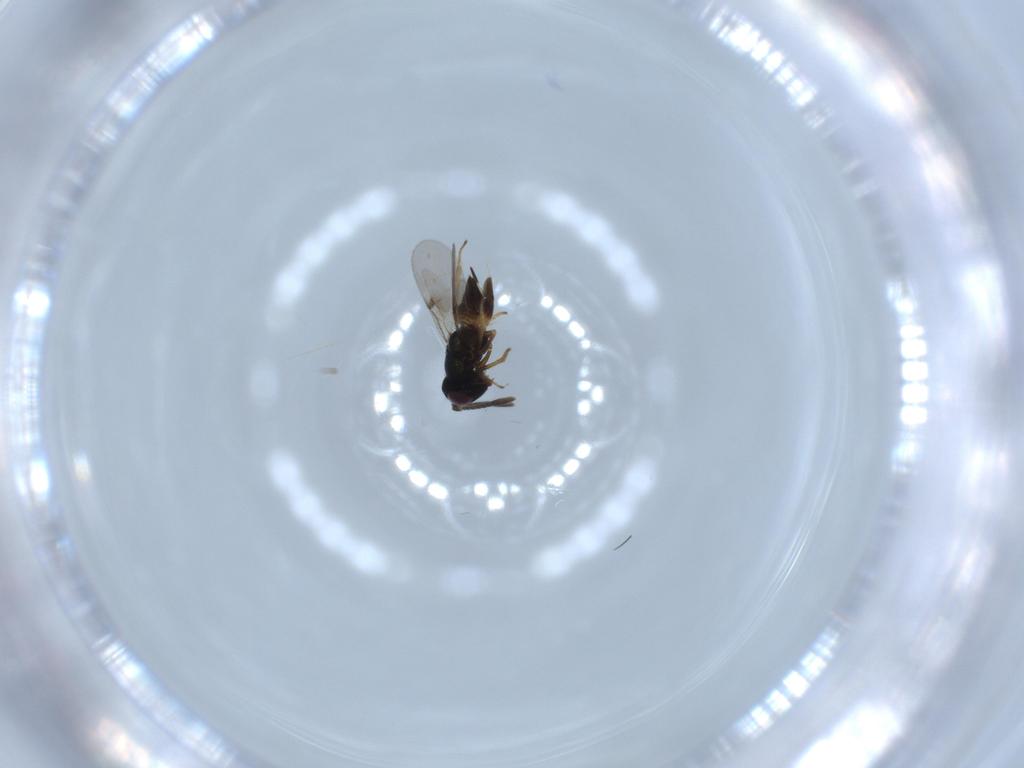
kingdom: Animalia
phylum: Arthropoda
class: Insecta
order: Hymenoptera
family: Encyrtidae
